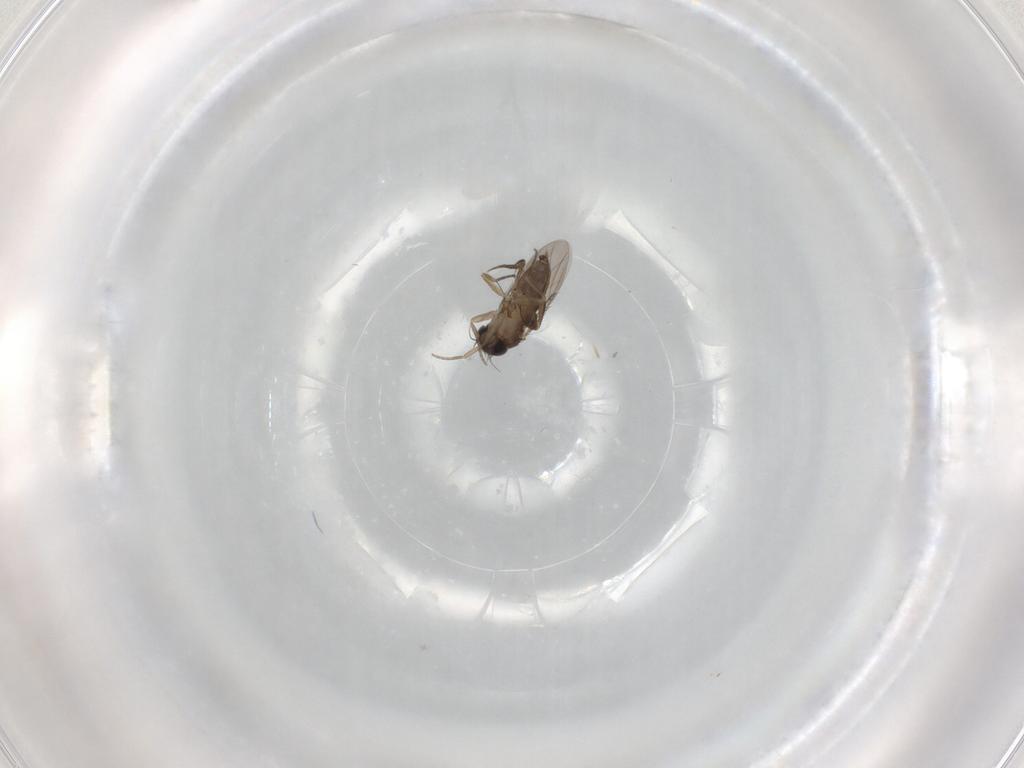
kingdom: Animalia
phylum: Arthropoda
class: Insecta
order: Diptera
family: Phoridae
